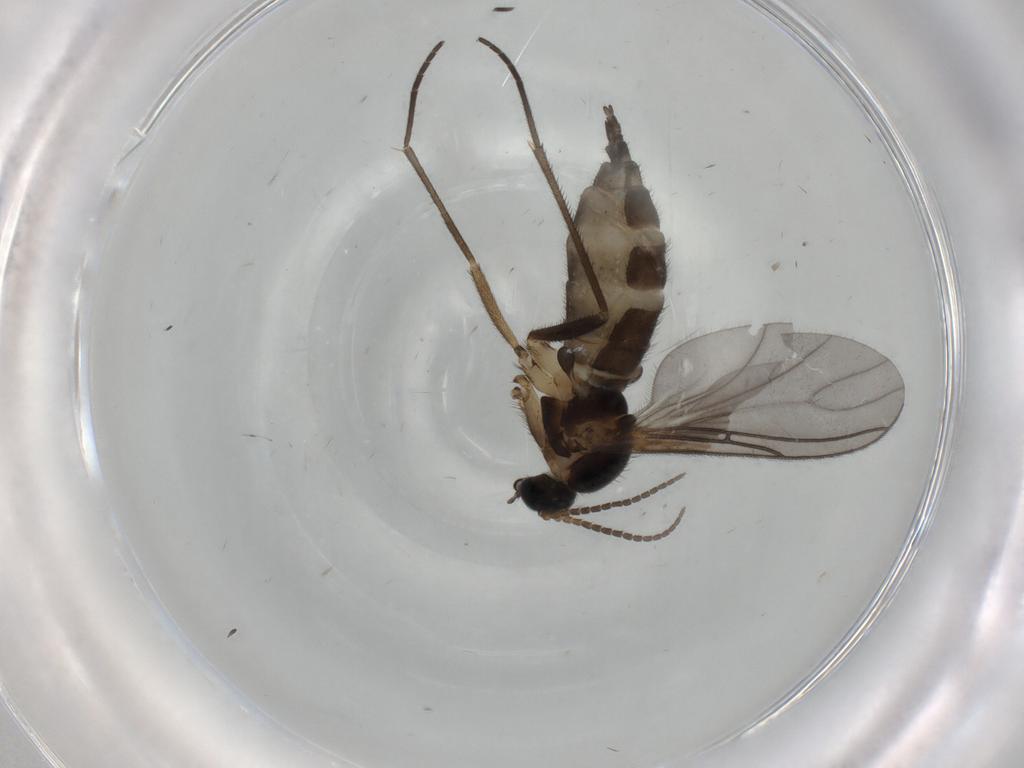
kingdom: Animalia
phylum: Arthropoda
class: Insecta
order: Diptera
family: Sciaridae
